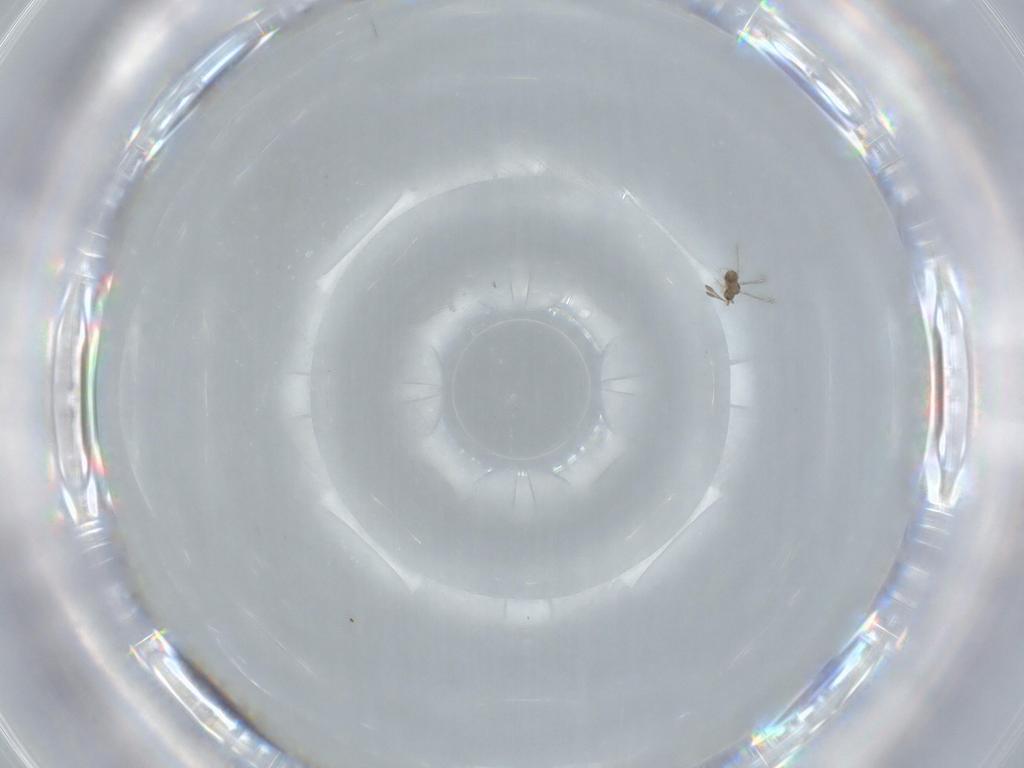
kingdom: Animalia
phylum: Arthropoda
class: Insecta
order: Hymenoptera
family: Mymaridae
